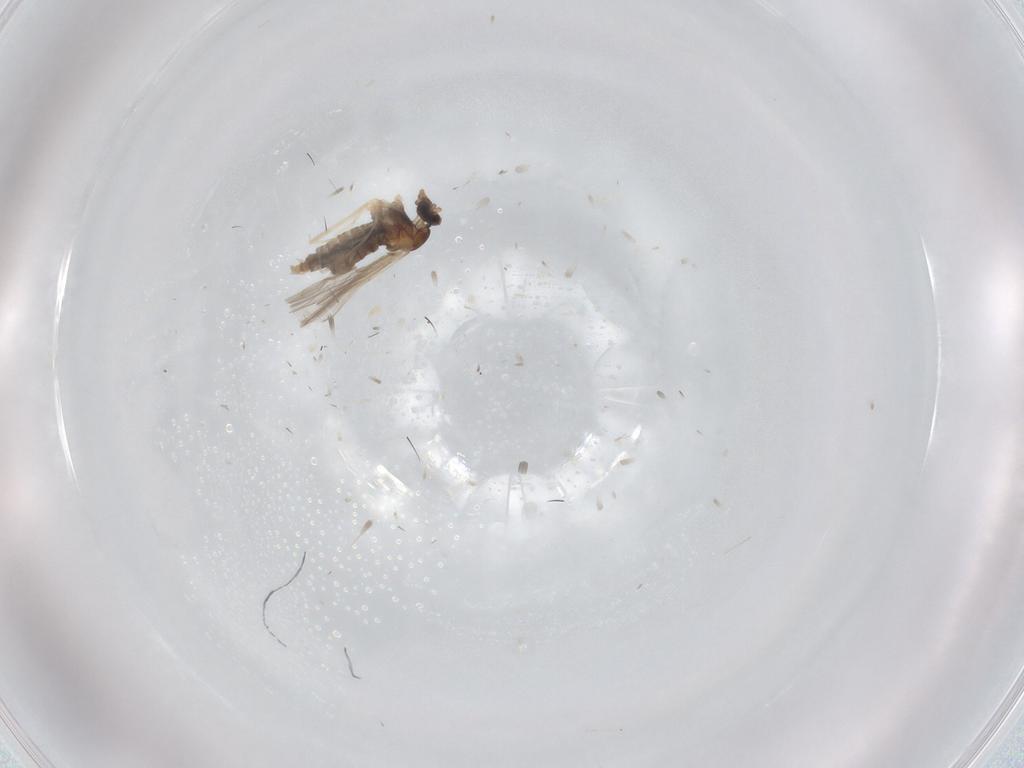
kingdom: Animalia
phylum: Arthropoda
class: Insecta
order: Diptera
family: Cecidomyiidae
